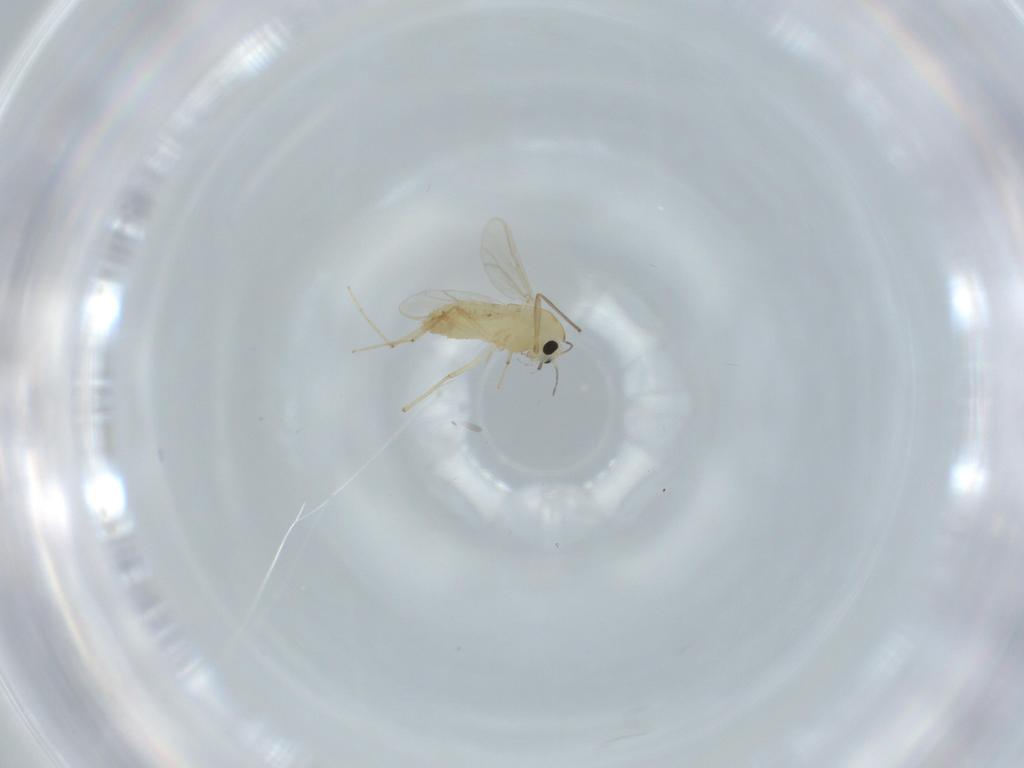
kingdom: Animalia
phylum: Arthropoda
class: Insecta
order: Diptera
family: Chironomidae
